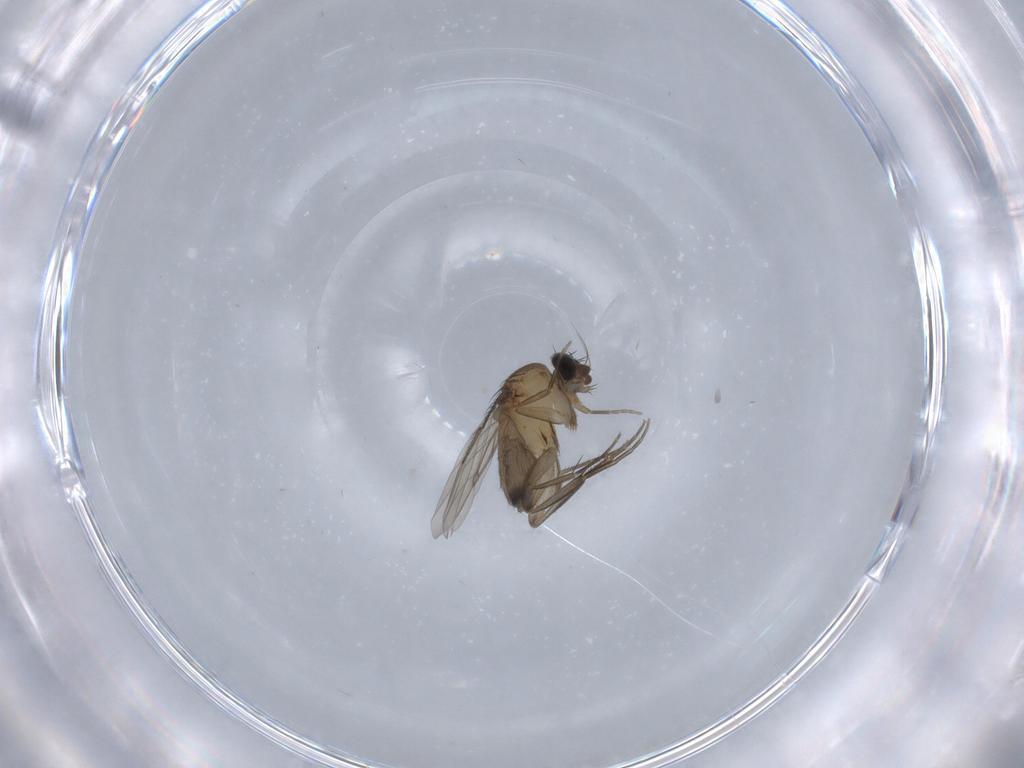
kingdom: Animalia
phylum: Arthropoda
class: Insecta
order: Diptera
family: Phoridae
